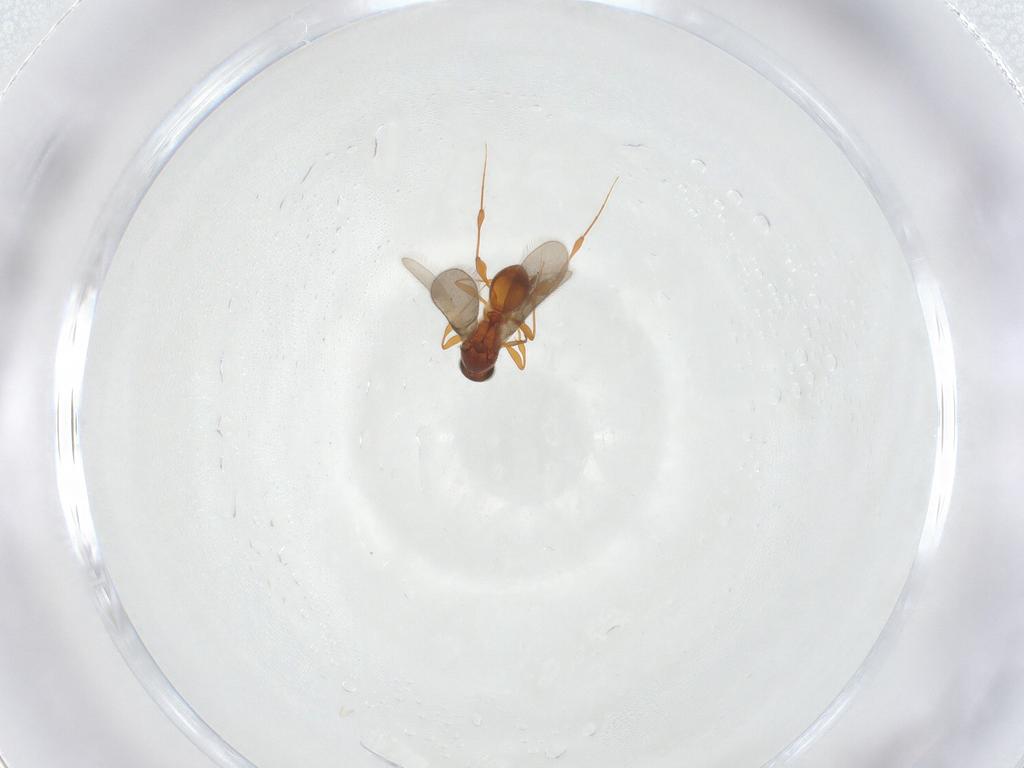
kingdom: Animalia
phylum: Arthropoda
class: Insecta
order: Hymenoptera
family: Platygastridae
